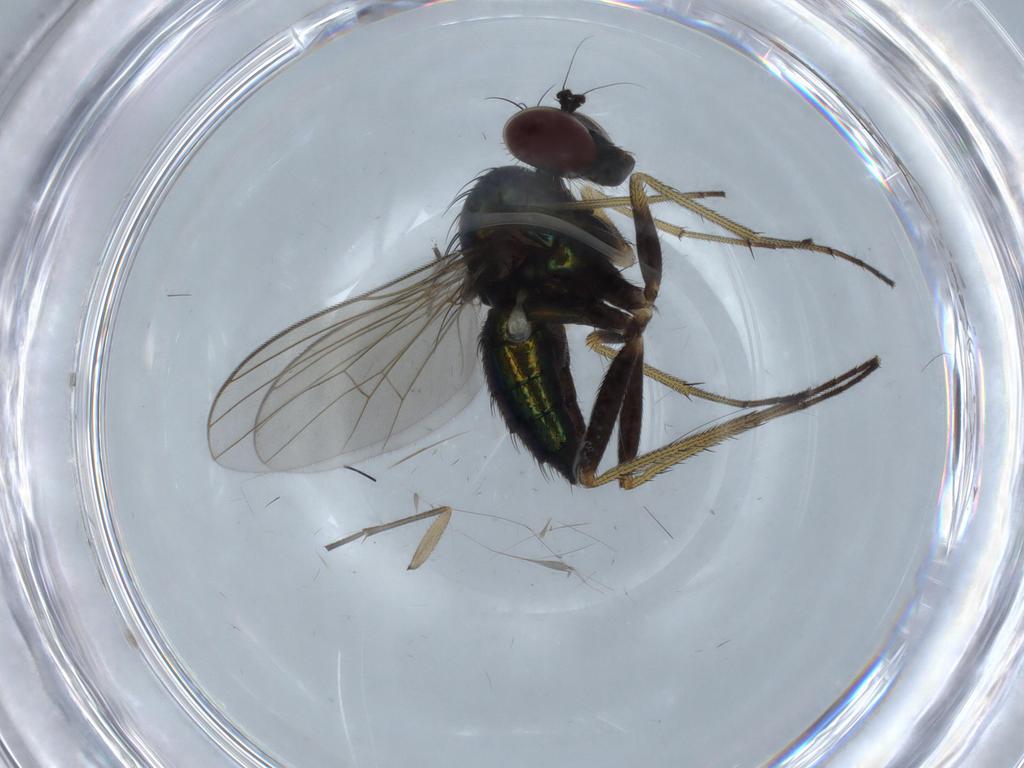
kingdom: Animalia
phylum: Arthropoda
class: Insecta
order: Diptera
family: Dolichopodidae
